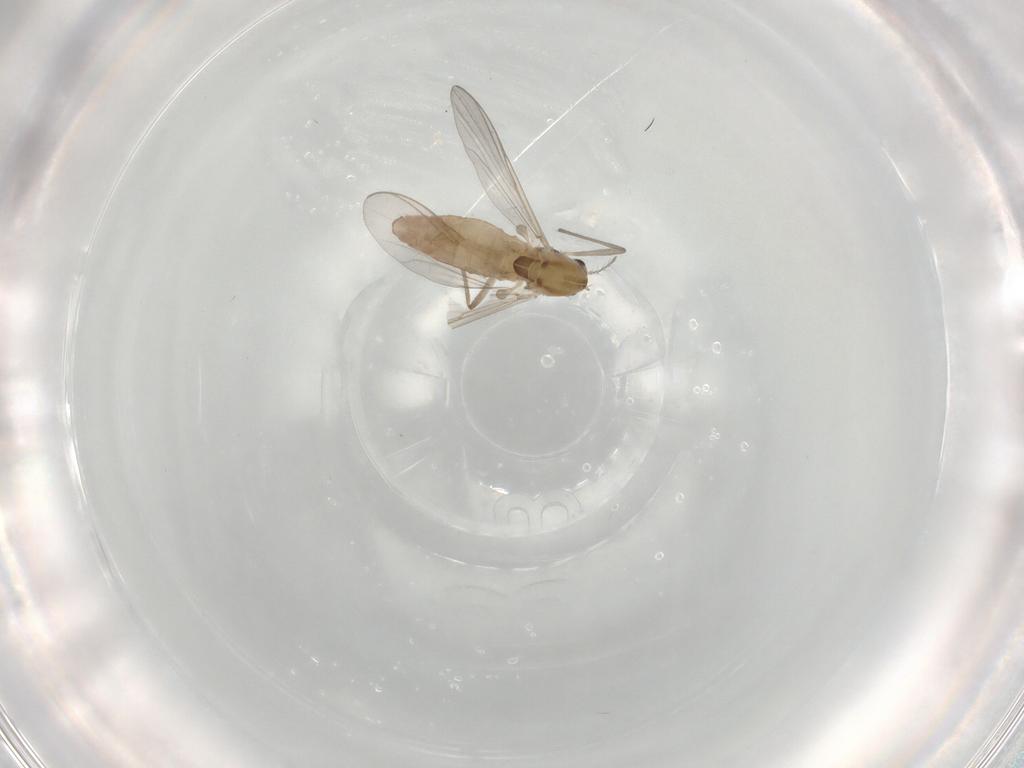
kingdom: Animalia
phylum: Arthropoda
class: Insecta
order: Diptera
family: Chironomidae
